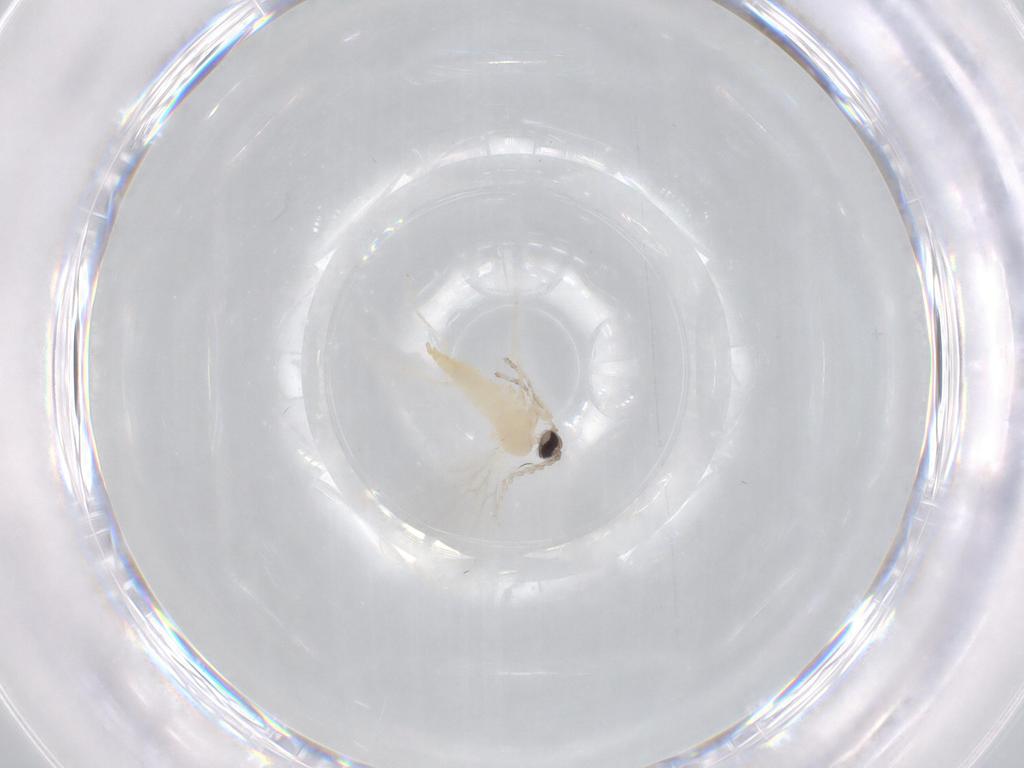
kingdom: Animalia
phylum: Arthropoda
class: Insecta
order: Diptera
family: Cecidomyiidae
